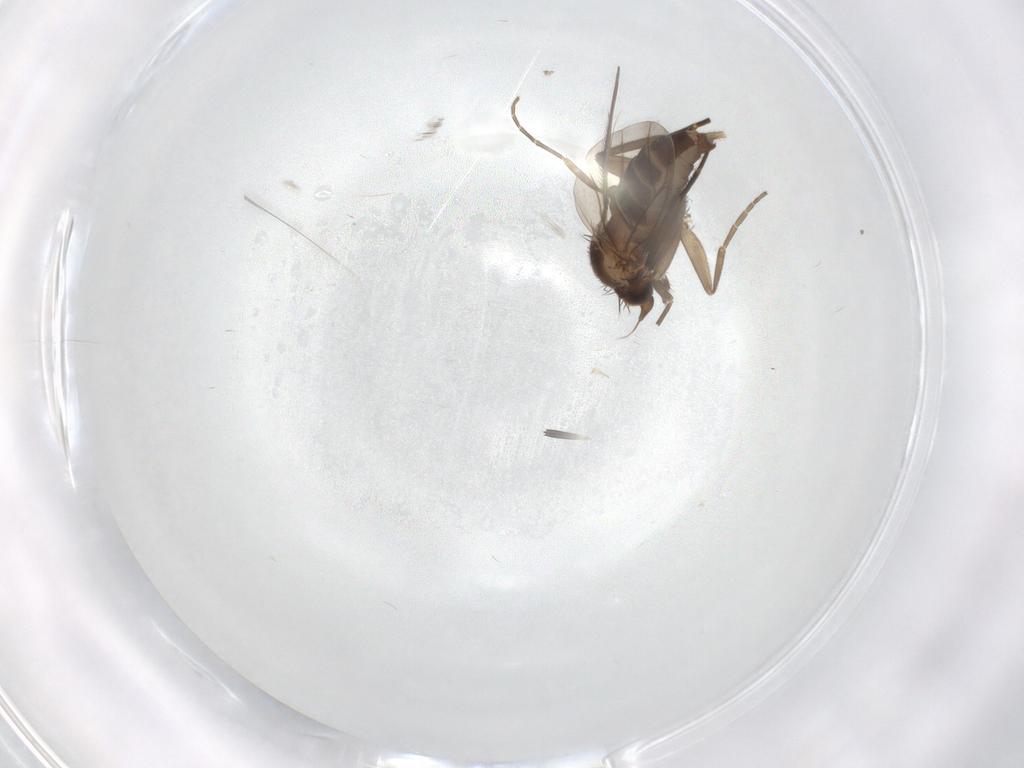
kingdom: Animalia
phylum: Arthropoda
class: Insecta
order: Diptera
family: Phoridae
